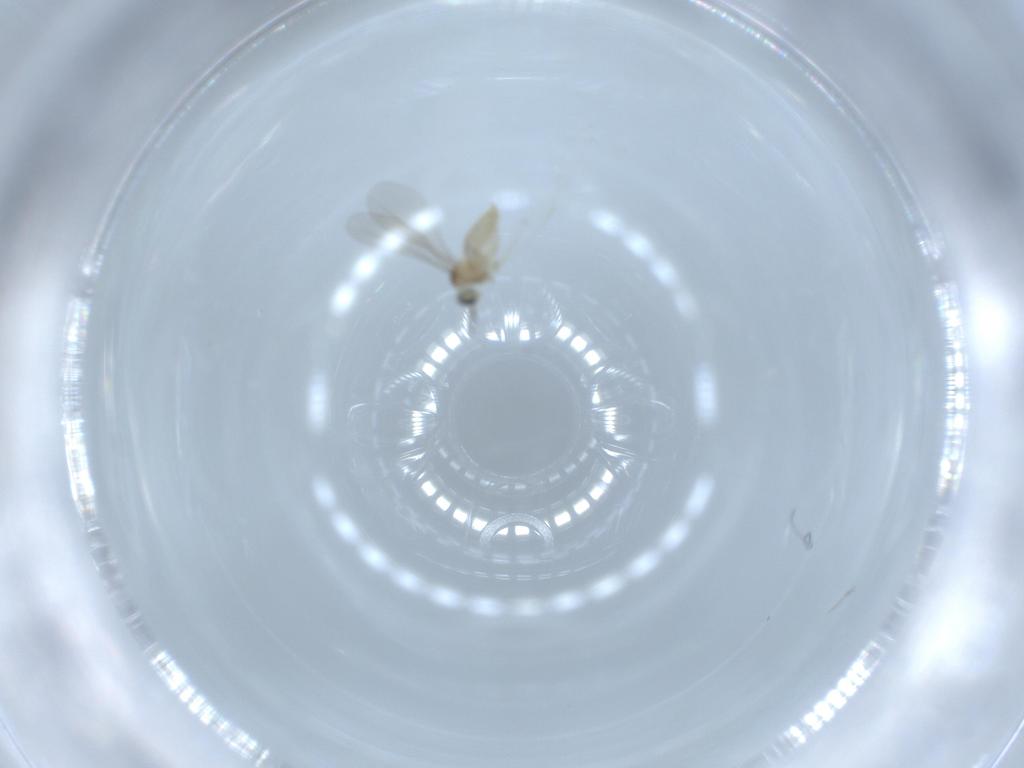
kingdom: Animalia
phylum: Arthropoda
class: Insecta
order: Diptera
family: Cecidomyiidae
